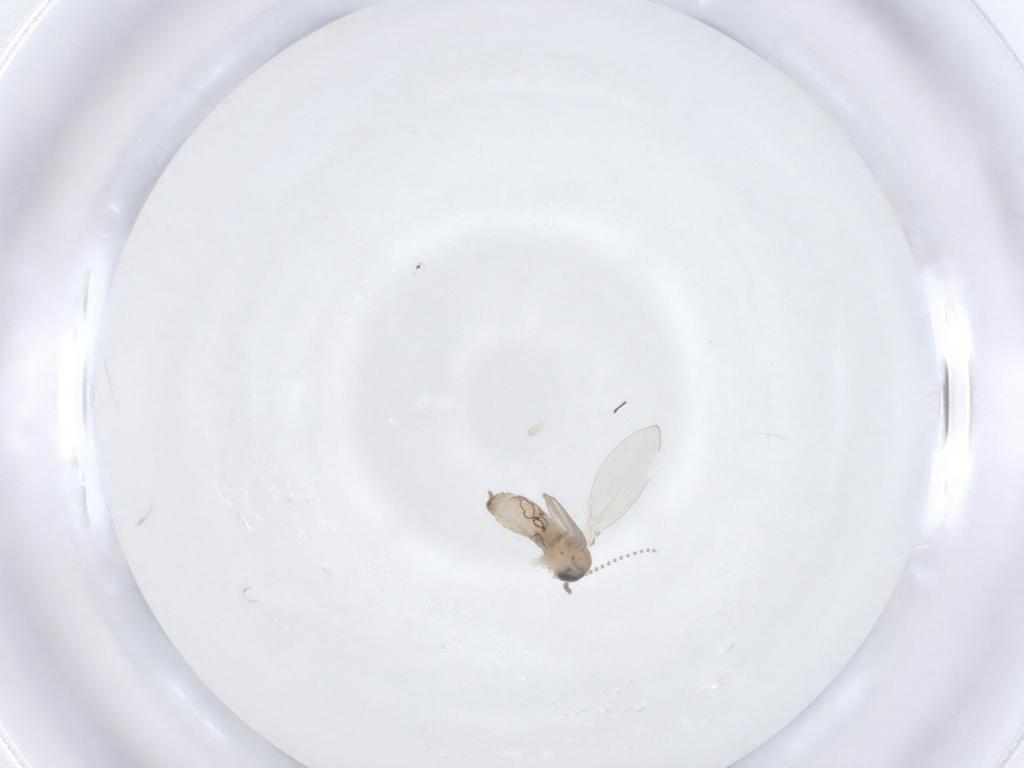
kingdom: Animalia
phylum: Arthropoda
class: Insecta
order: Diptera
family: Psychodidae
